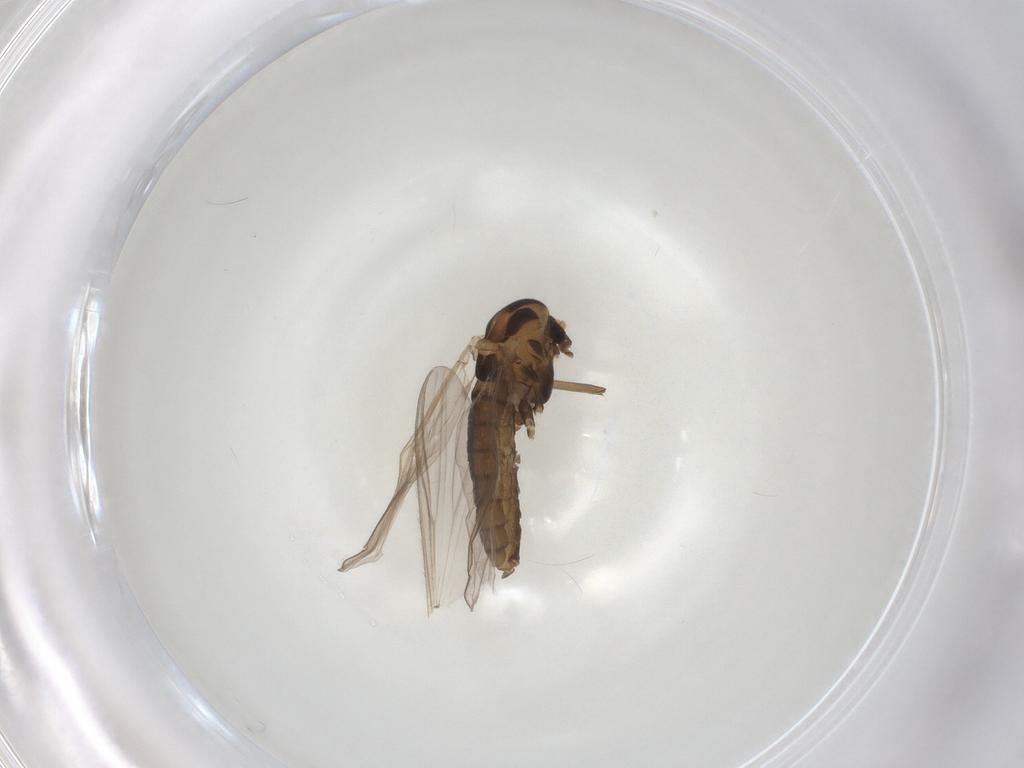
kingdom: Animalia
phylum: Arthropoda
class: Insecta
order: Diptera
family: Chironomidae
